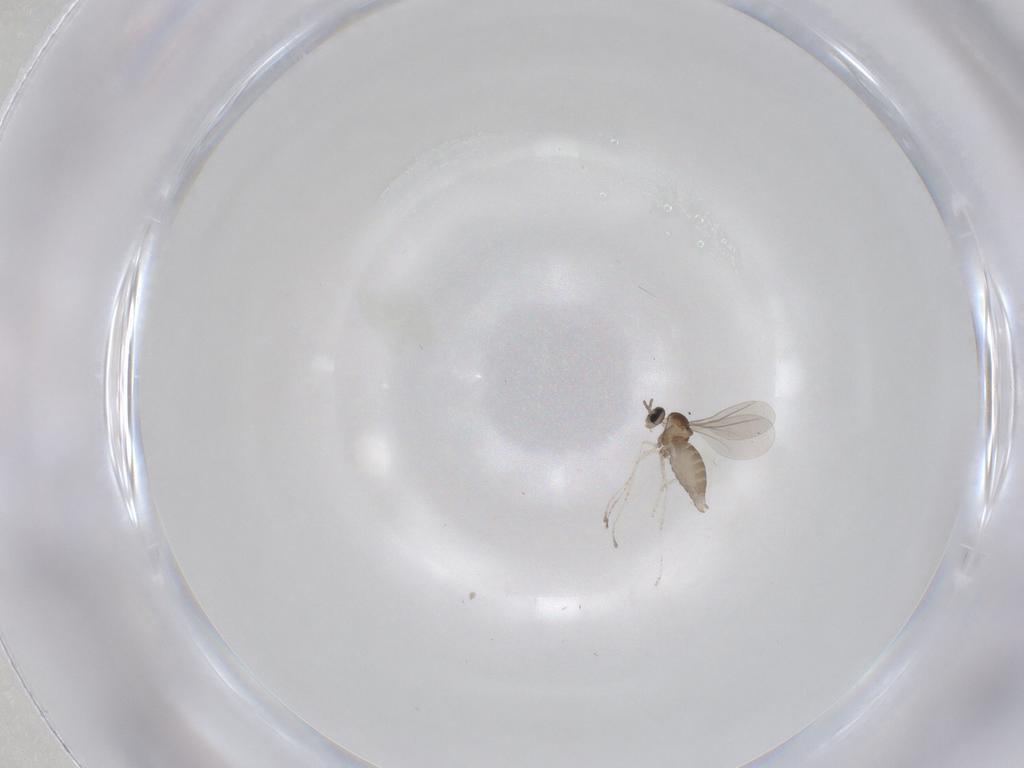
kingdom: Animalia
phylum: Arthropoda
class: Insecta
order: Diptera
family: Cecidomyiidae
